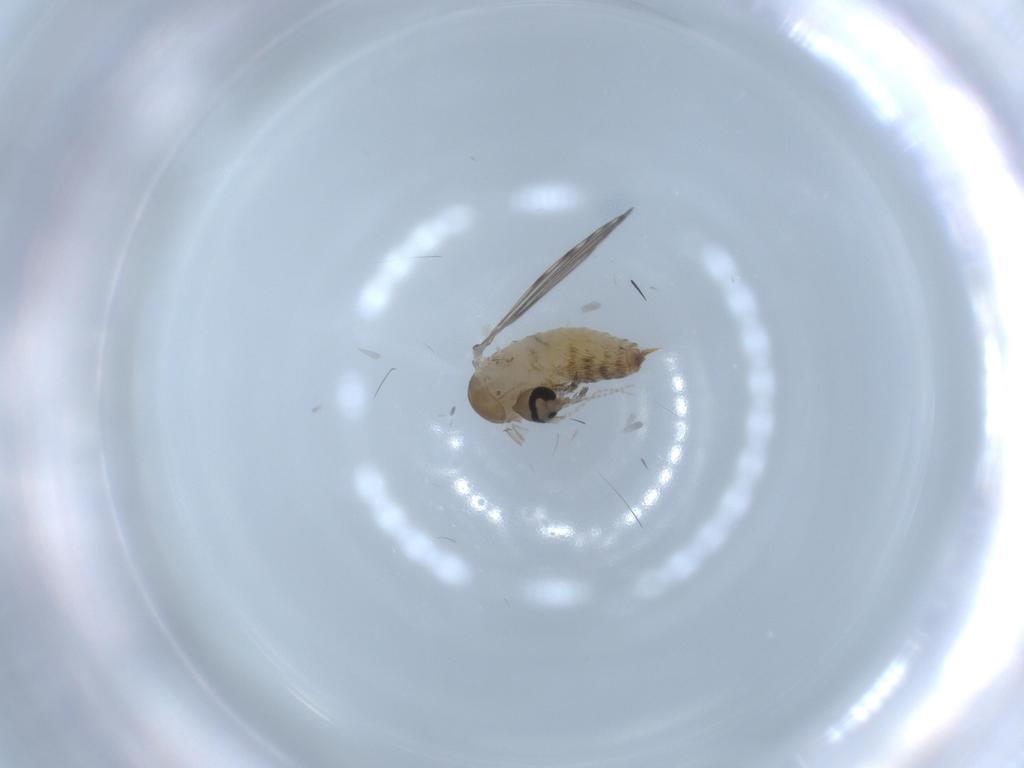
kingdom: Animalia
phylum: Arthropoda
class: Insecta
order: Diptera
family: Psychodidae
